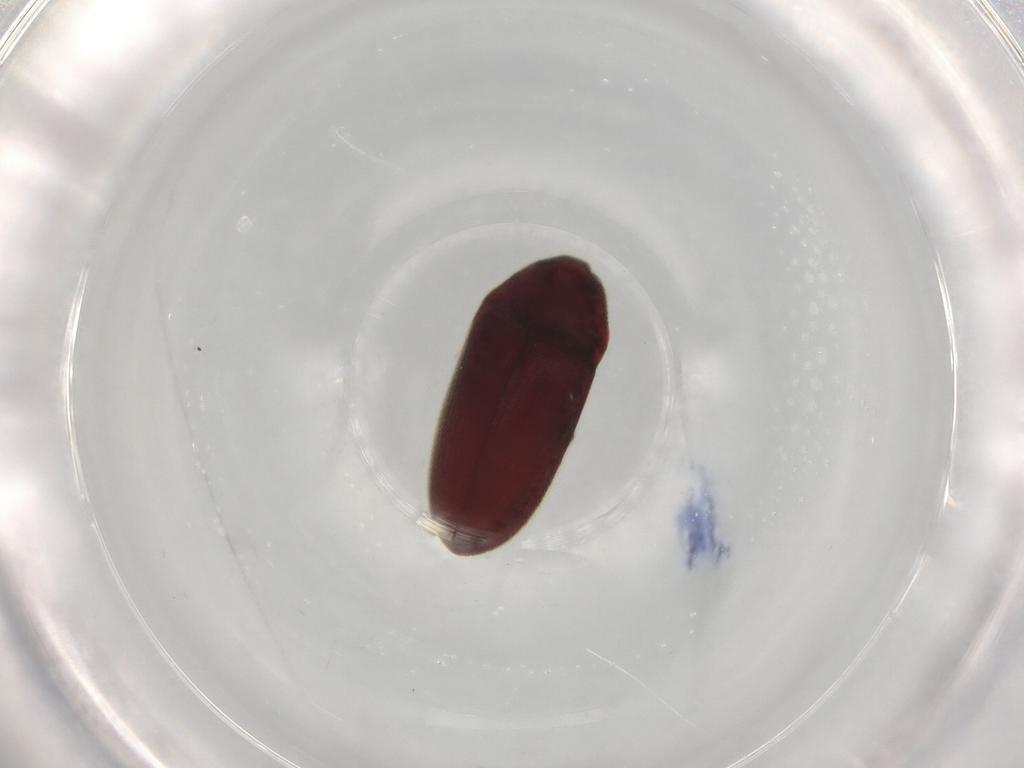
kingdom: Animalia
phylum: Arthropoda
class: Insecta
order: Coleoptera
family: Throscidae
